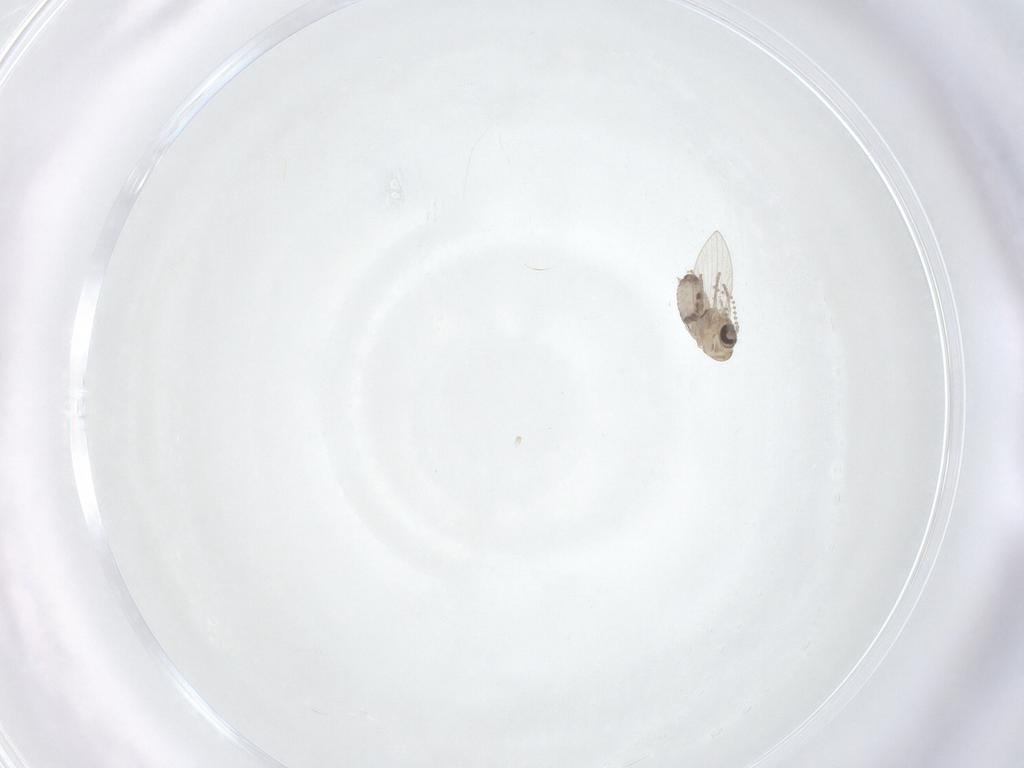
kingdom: Animalia
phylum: Arthropoda
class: Insecta
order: Diptera
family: Psychodidae
